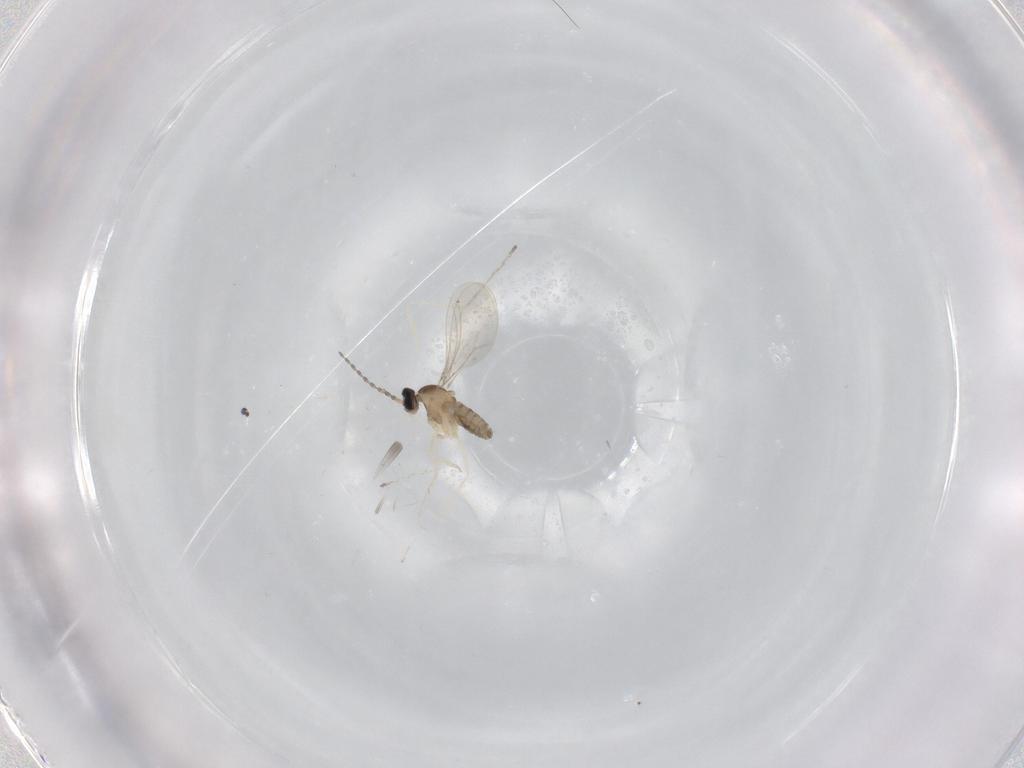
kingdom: Animalia
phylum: Arthropoda
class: Insecta
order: Diptera
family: Cecidomyiidae
